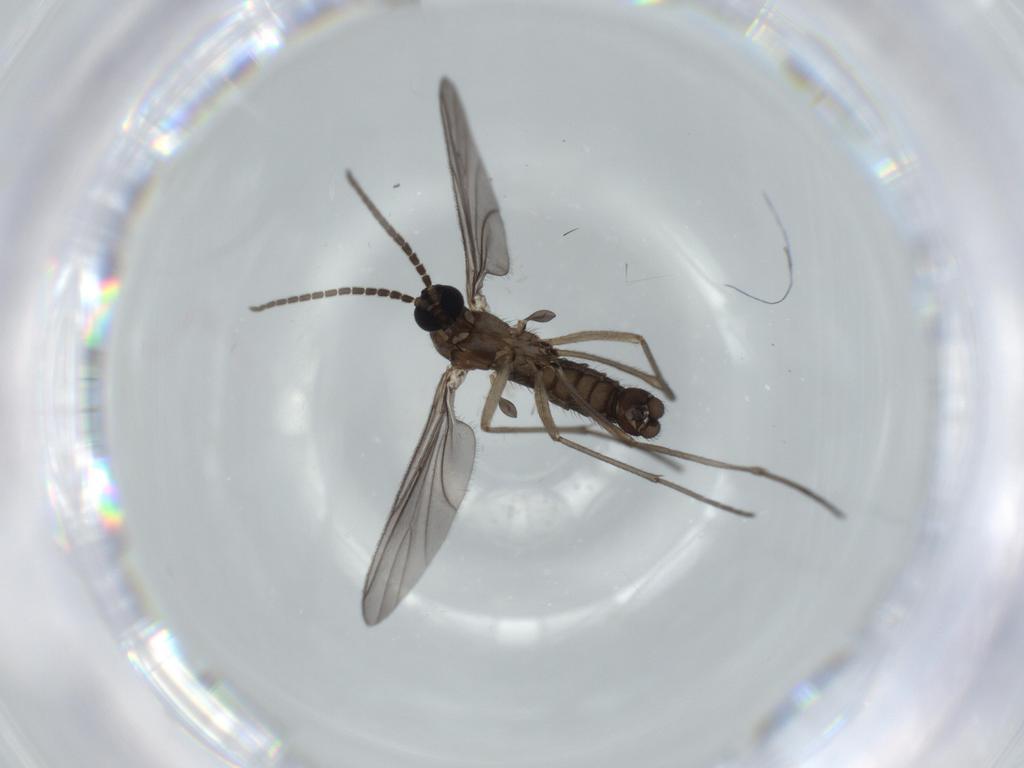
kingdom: Animalia
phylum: Arthropoda
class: Insecta
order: Diptera
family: Sciaridae
